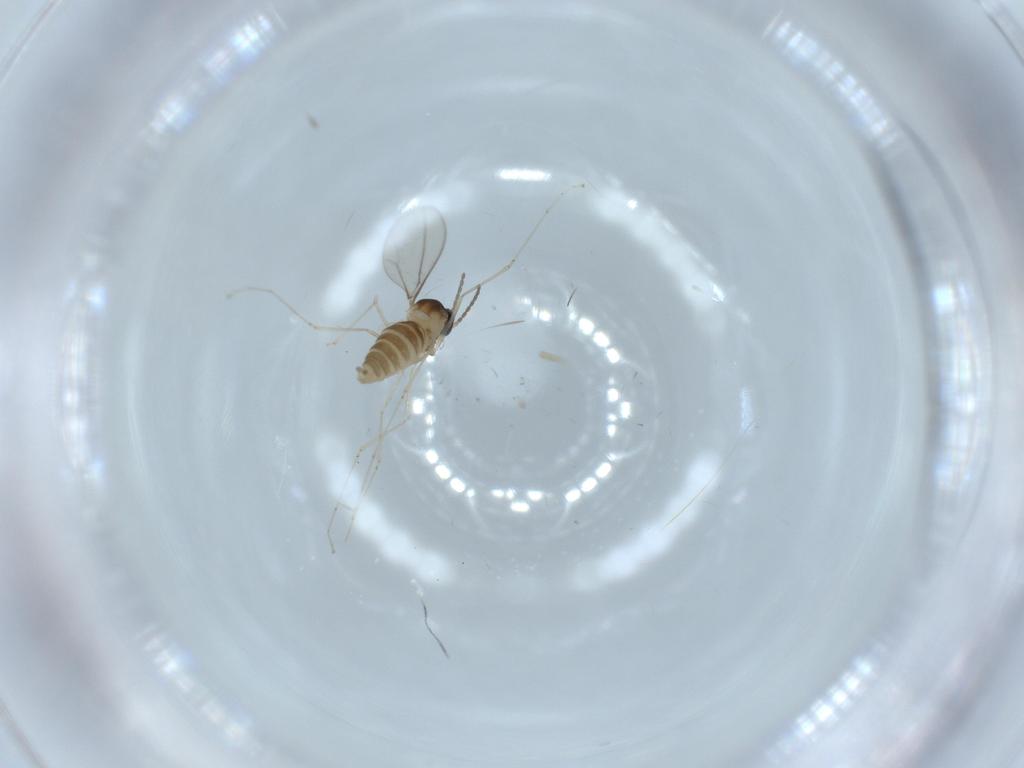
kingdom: Animalia
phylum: Arthropoda
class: Insecta
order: Diptera
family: Cecidomyiidae
